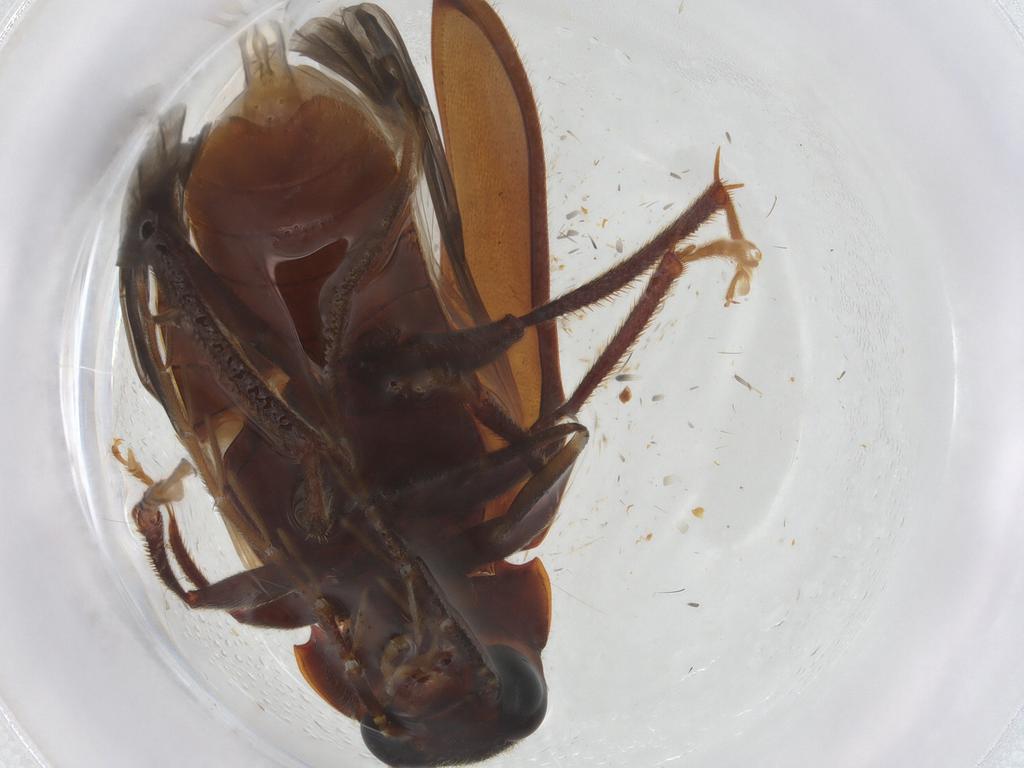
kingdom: Animalia
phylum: Arthropoda
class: Insecta
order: Coleoptera
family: Ptilodactylidae
